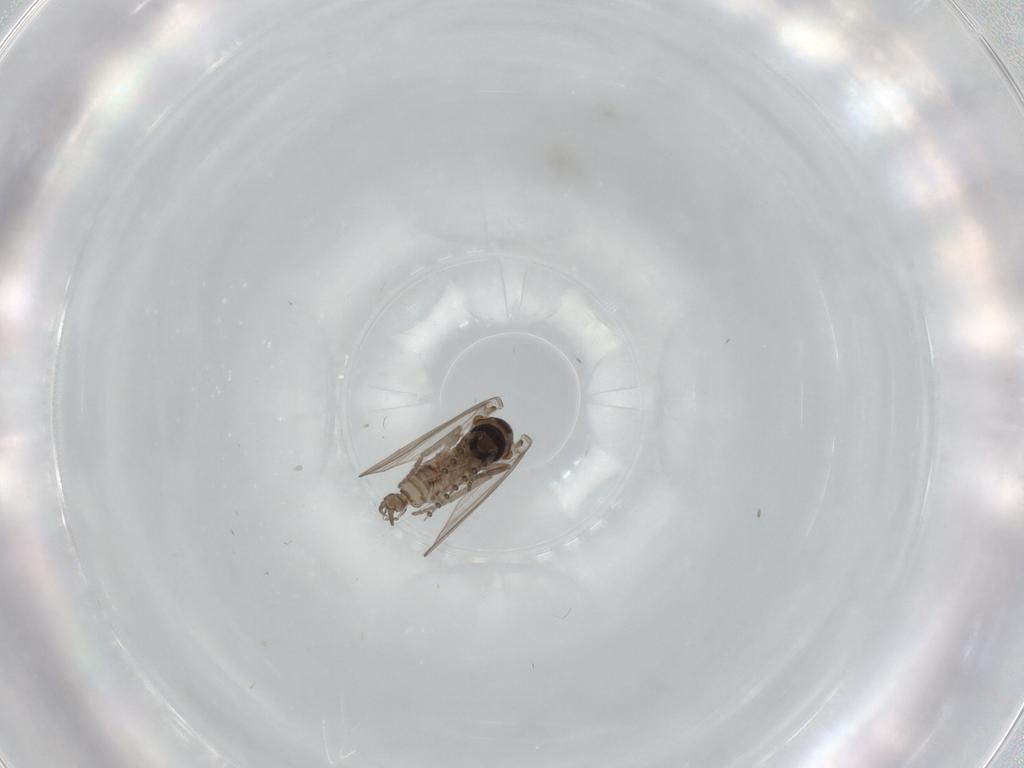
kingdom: Animalia
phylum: Arthropoda
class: Insecta
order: Diptera
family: Psychodidae
